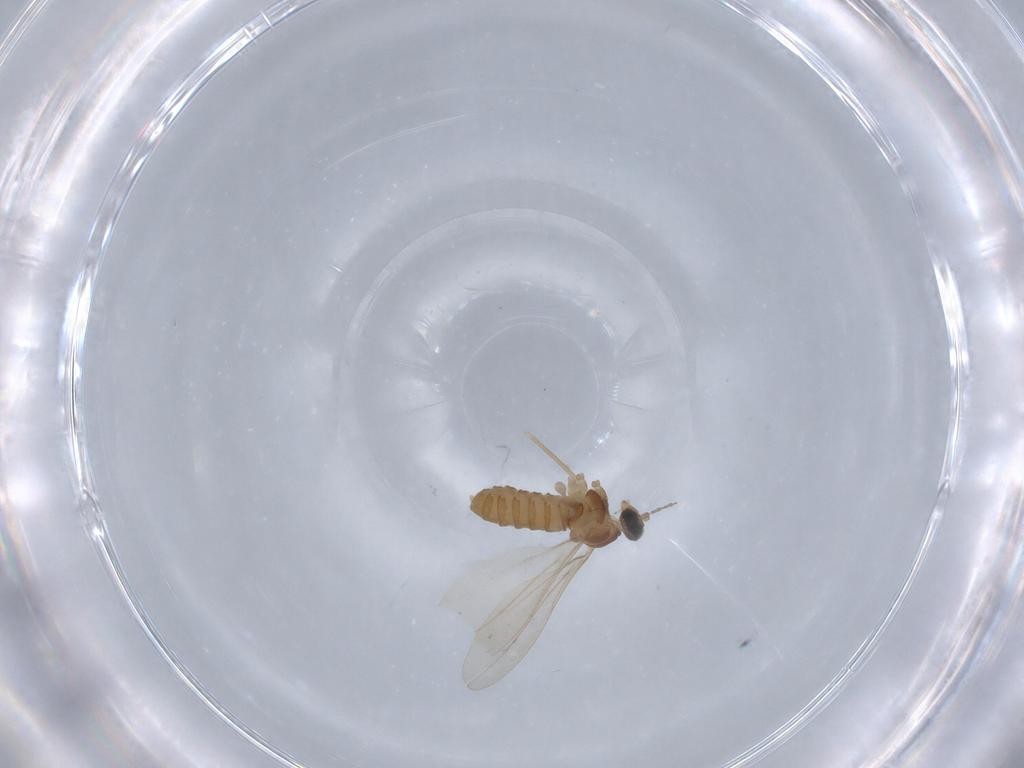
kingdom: Animalia
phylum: Arthropoda
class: Insecta
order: Diptera
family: Cecidomyiidae
